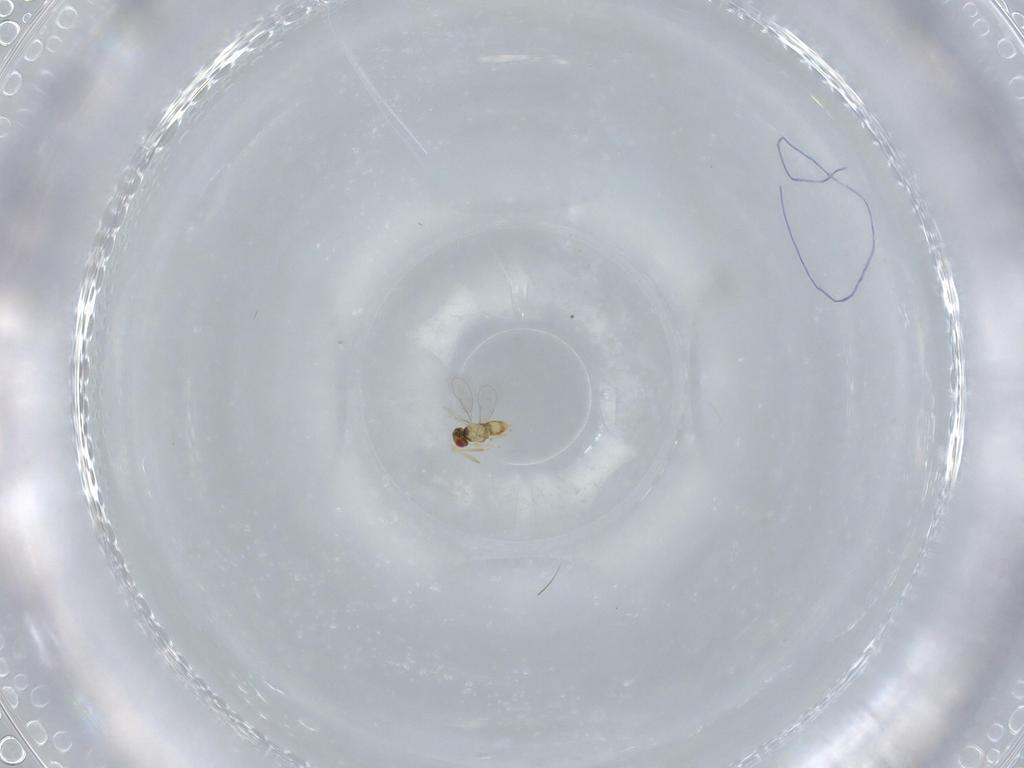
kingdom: Animalia
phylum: Arthropoda
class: Insecta
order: Hymenoptera
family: Aphelinidae
